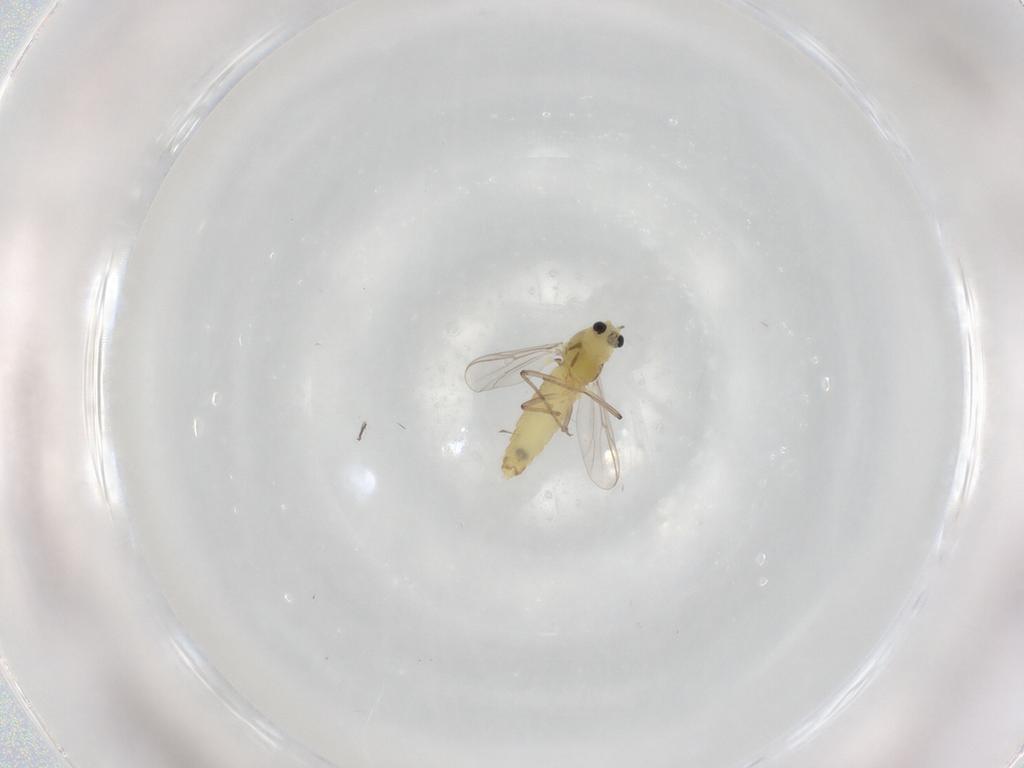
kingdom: Animalia
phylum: Arthropoda
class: Insecta
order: Diptera
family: Chironomidae
